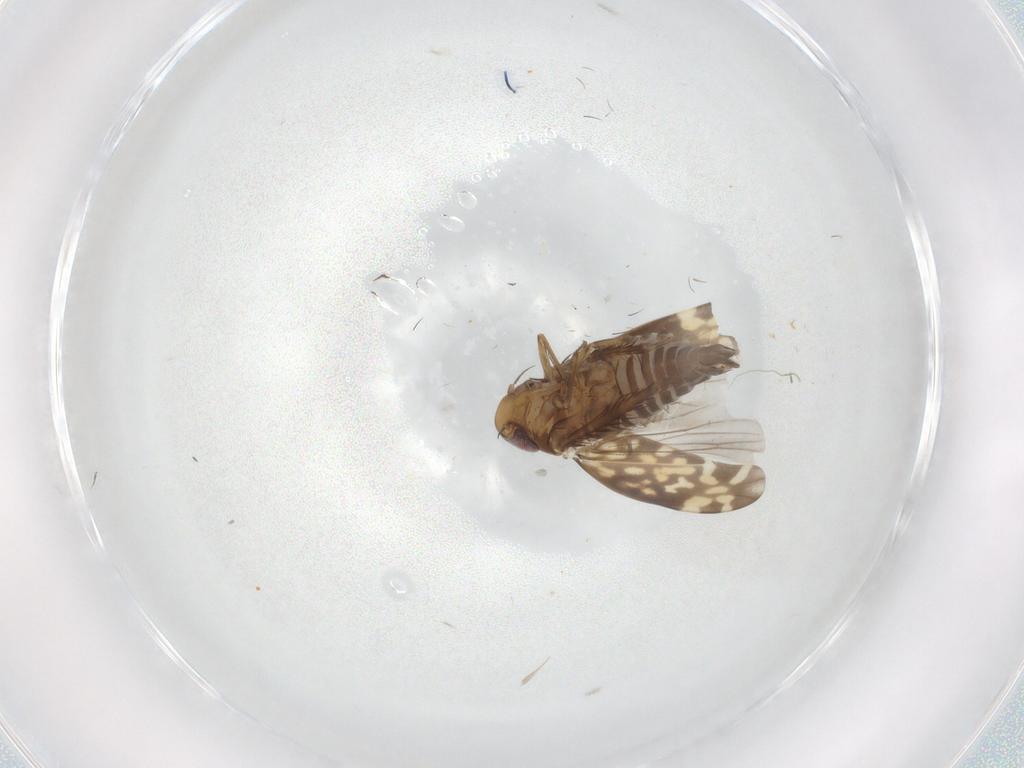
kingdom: Animalia
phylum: Arthropoda
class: Insecta
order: Hemiptera
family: Cicadellidae
